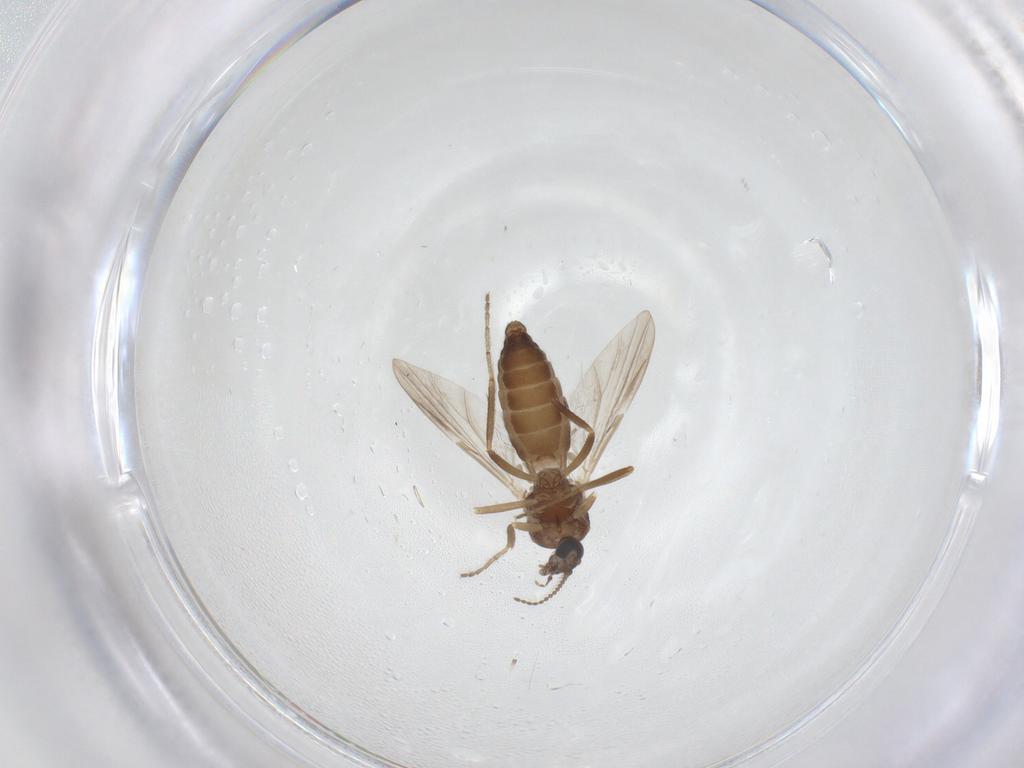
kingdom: Animalia
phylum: Arthropoda
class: Insecta
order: Diptera
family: Ceratopogonidae
